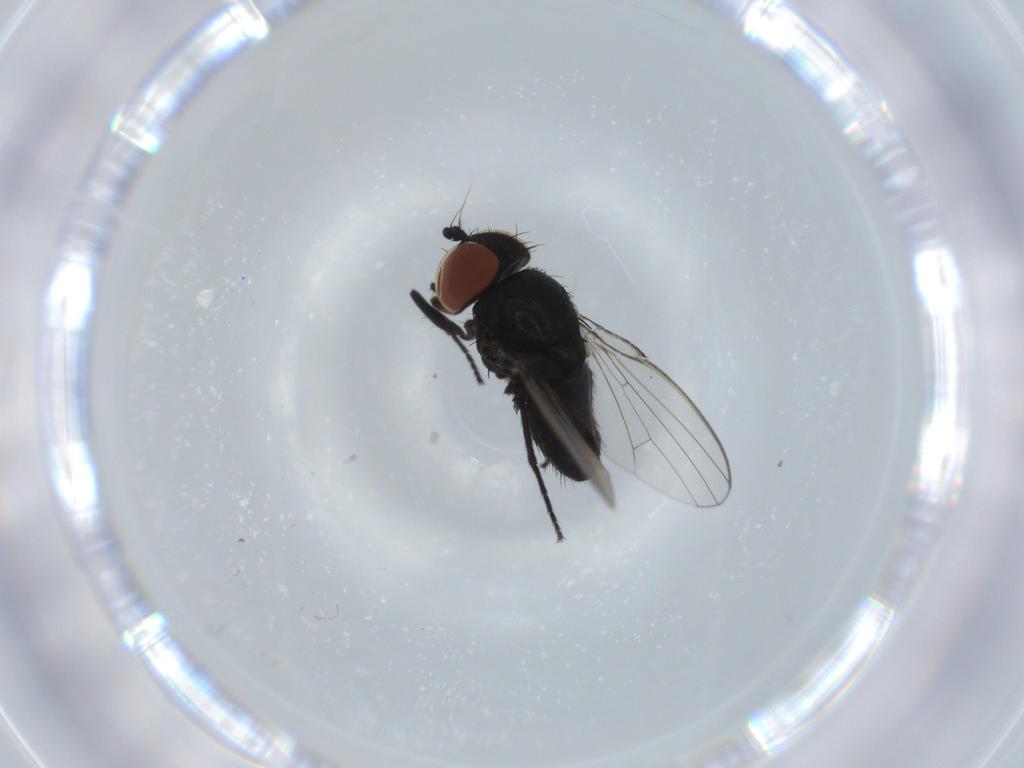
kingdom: Animalia
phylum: Arthropoda
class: Insecta
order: Diptera
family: Milichiidae
